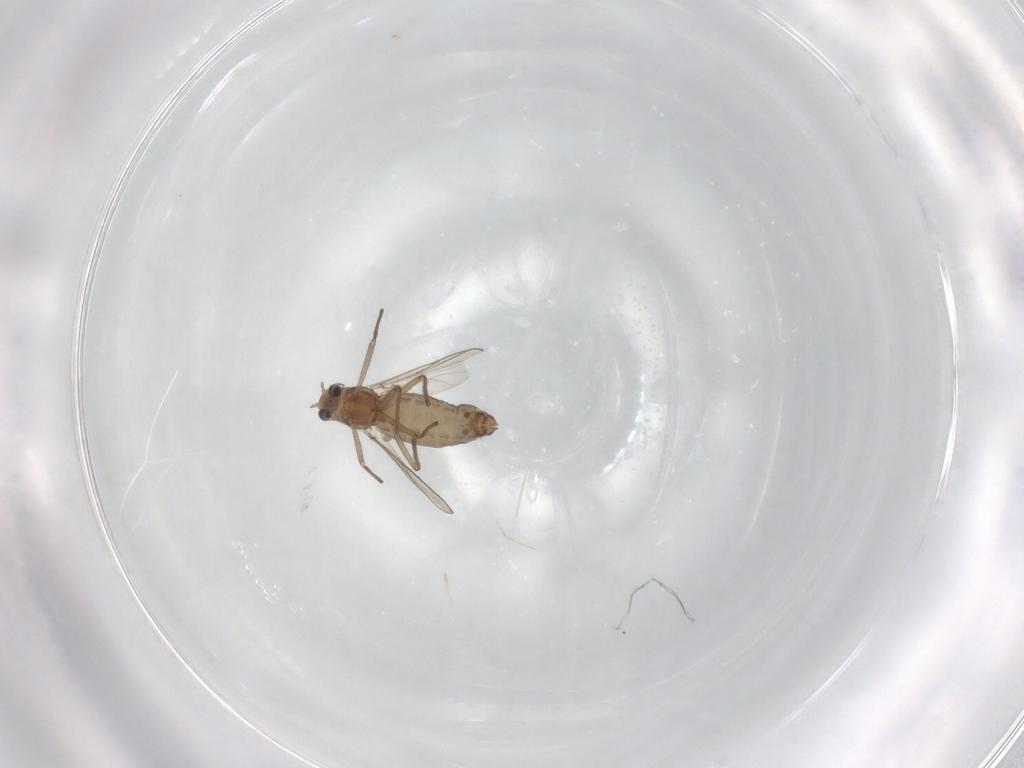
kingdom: Animalia
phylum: Arthropoda
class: Insecta
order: Diptera
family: Chironomidae
